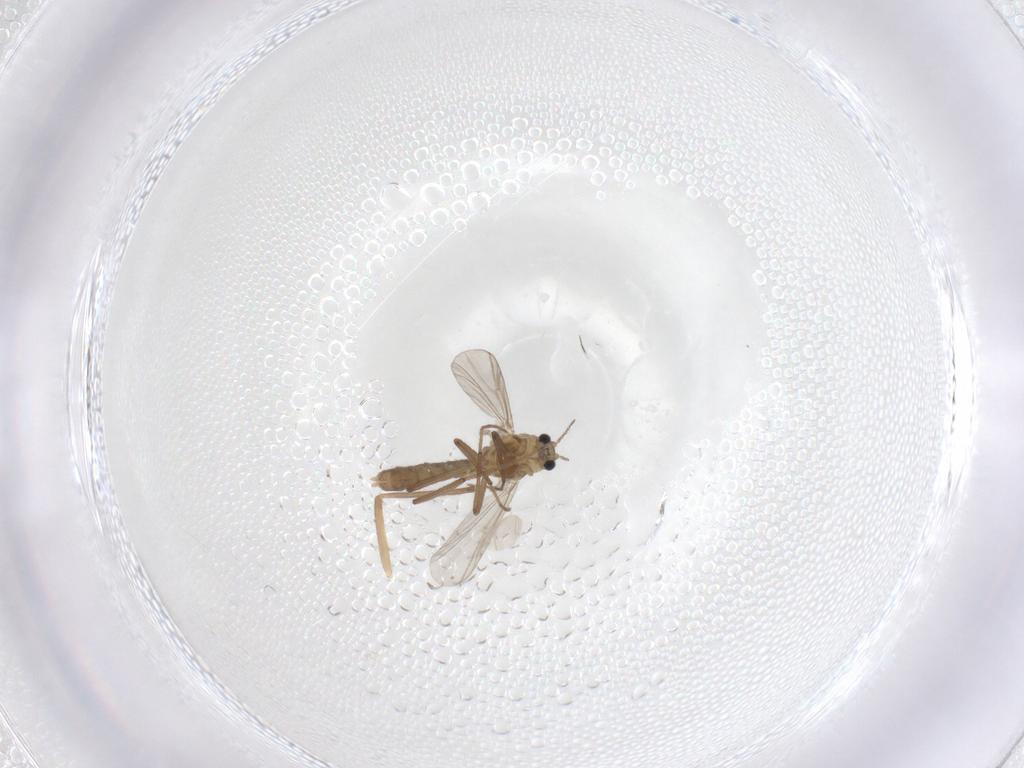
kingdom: Animalia
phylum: Arthropoda
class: Insecta
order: Diptera
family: Chironomidae
